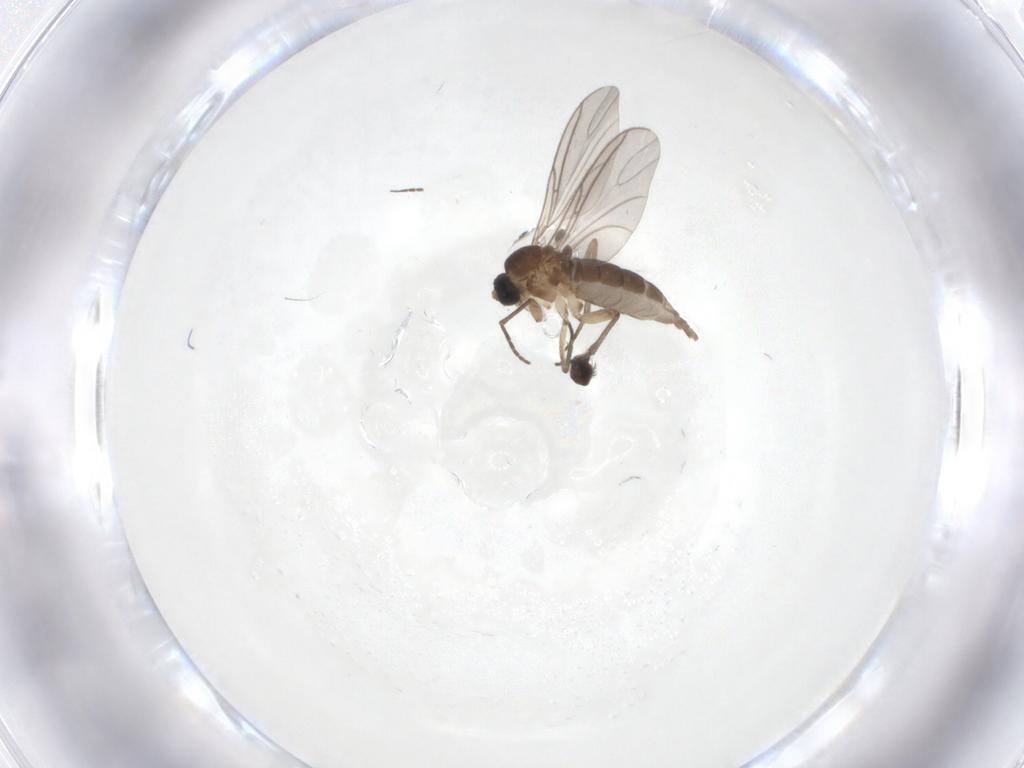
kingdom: Animalia
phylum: Arthropoda
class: Insecta
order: Diptera
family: Sciaridae
